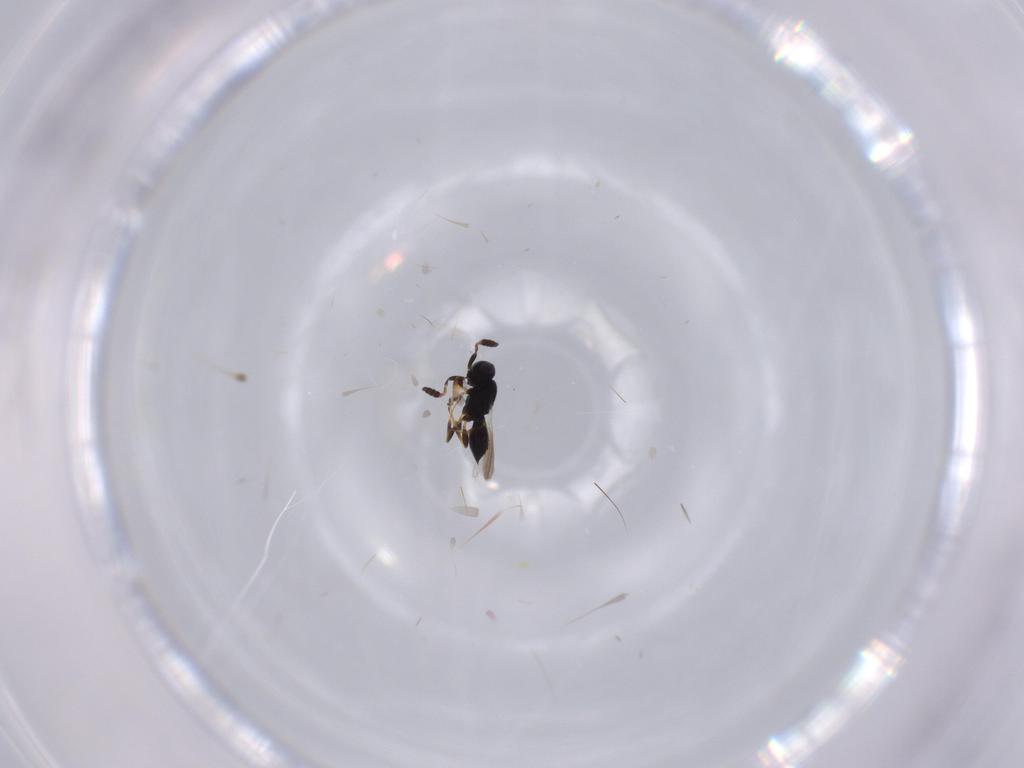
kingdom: Animalia
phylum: Arthropoda
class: Insecta
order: Hymenoptera
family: Scelionidae
